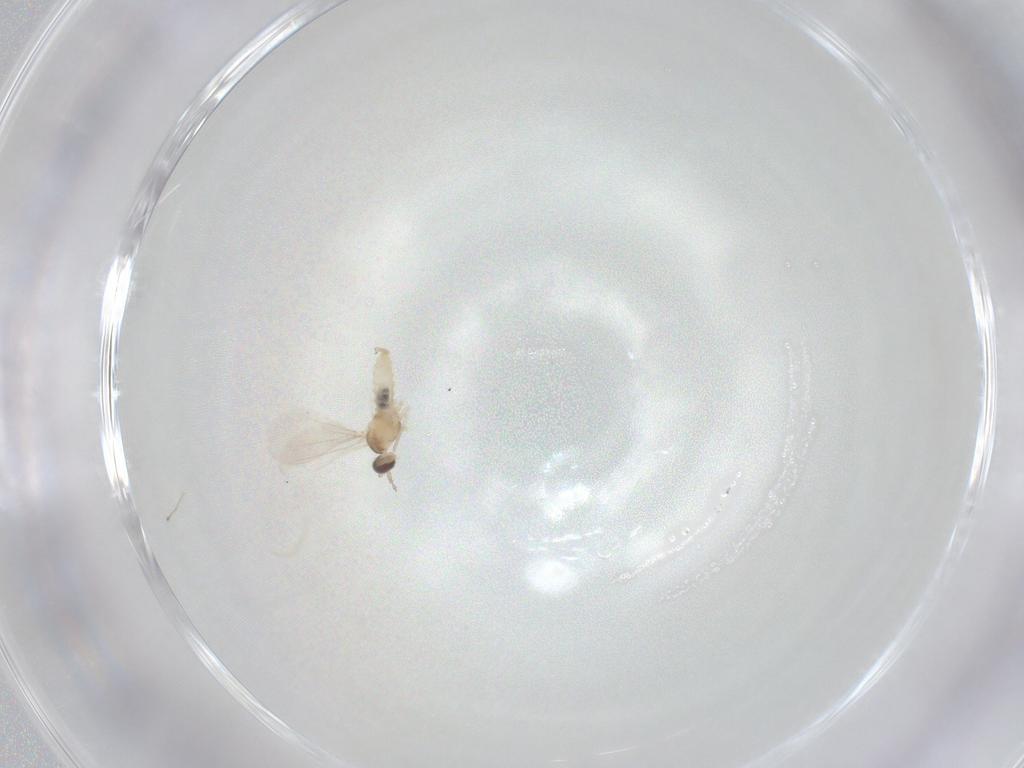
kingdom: Animalia
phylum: Arthropoda
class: Insecta
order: Diptera
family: Cecidomyiidae
